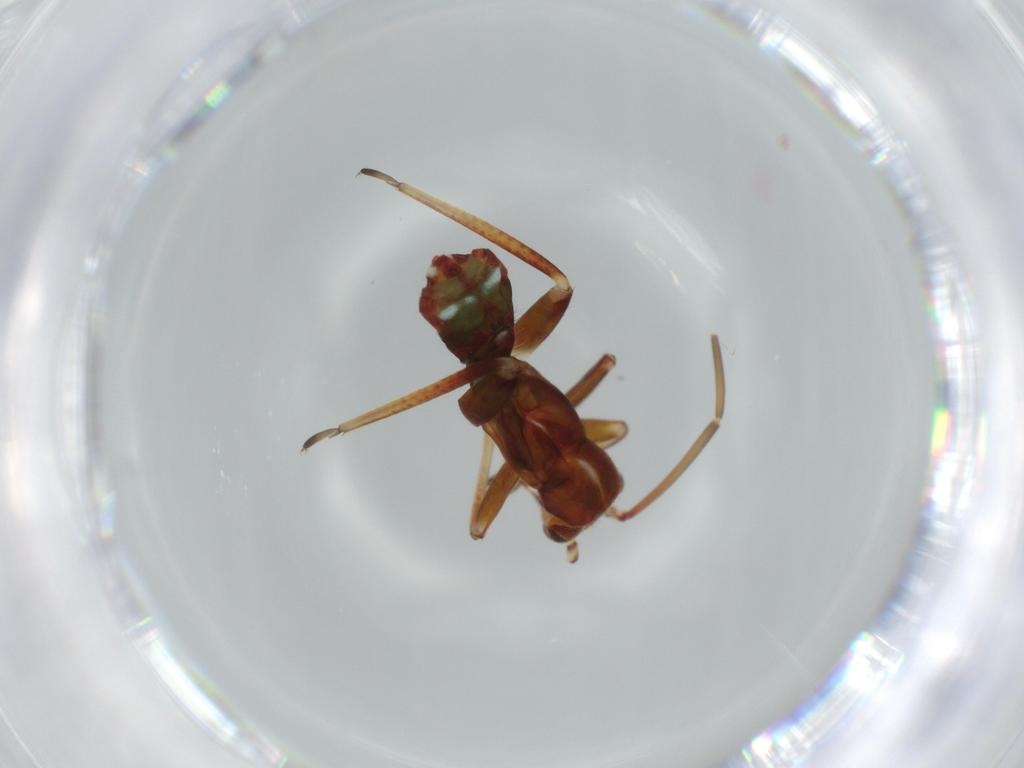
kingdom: Animalia
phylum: Arthropoda
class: Insecta
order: Hemiptera
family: Miridae
